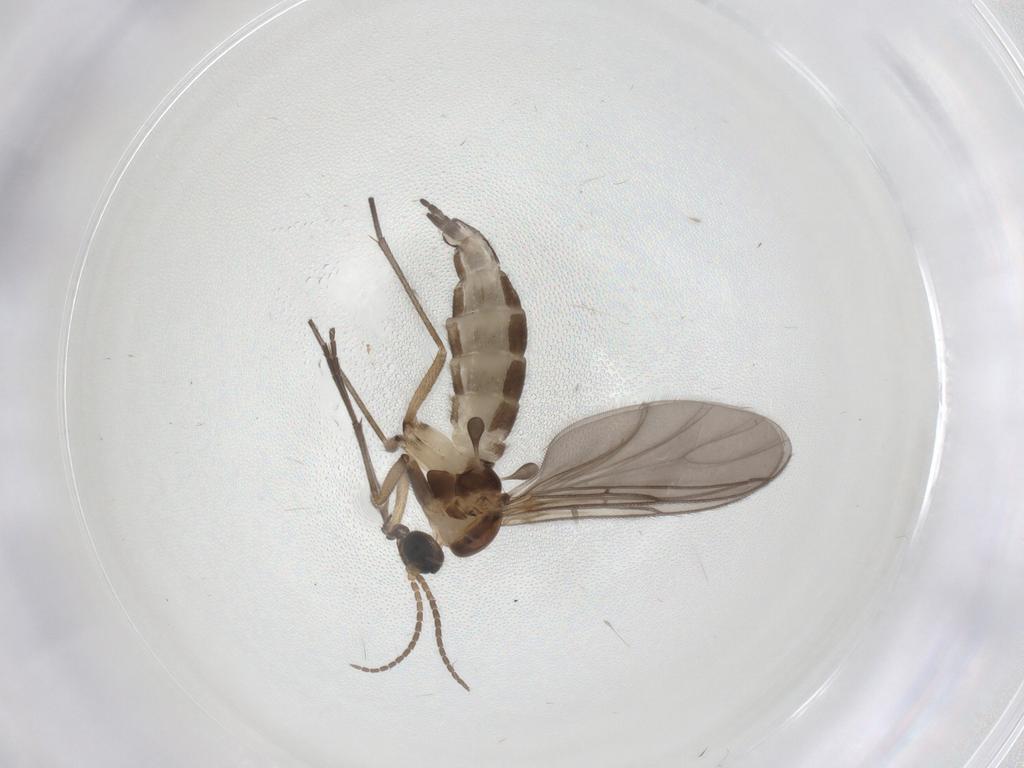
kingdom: Animalia
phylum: Arthropoda
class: Insecta
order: Diptera
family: Sciaridae
